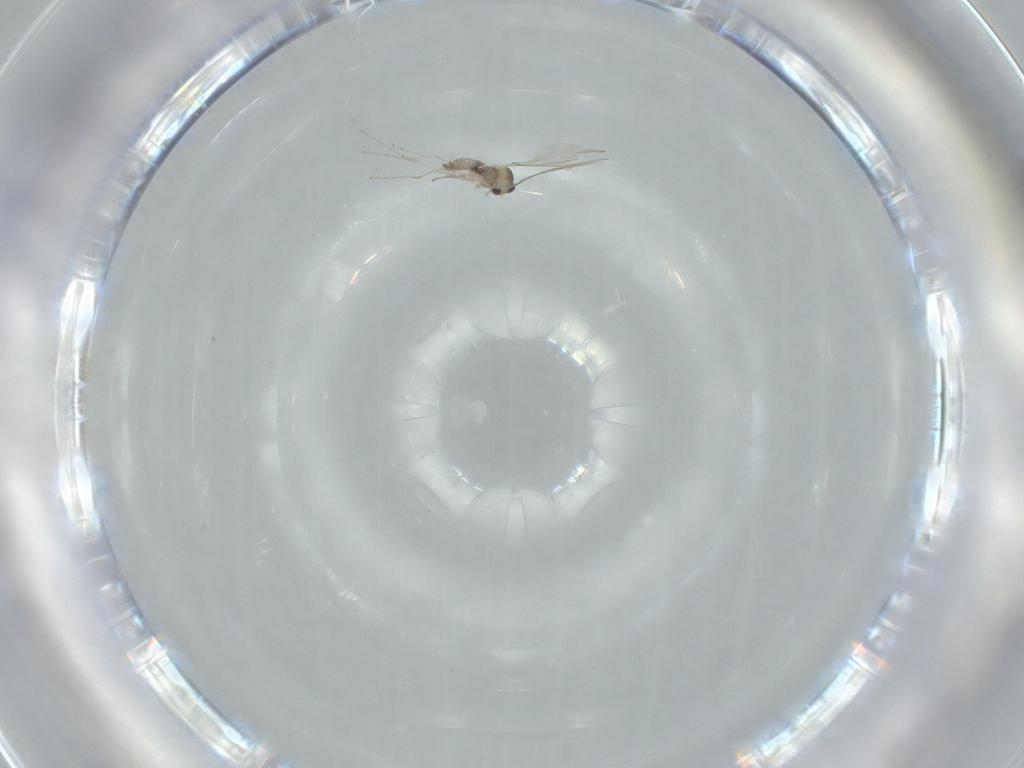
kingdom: Animalia
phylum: Arthropoda
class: Insecta
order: Diptera
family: Cecidomyiidae
